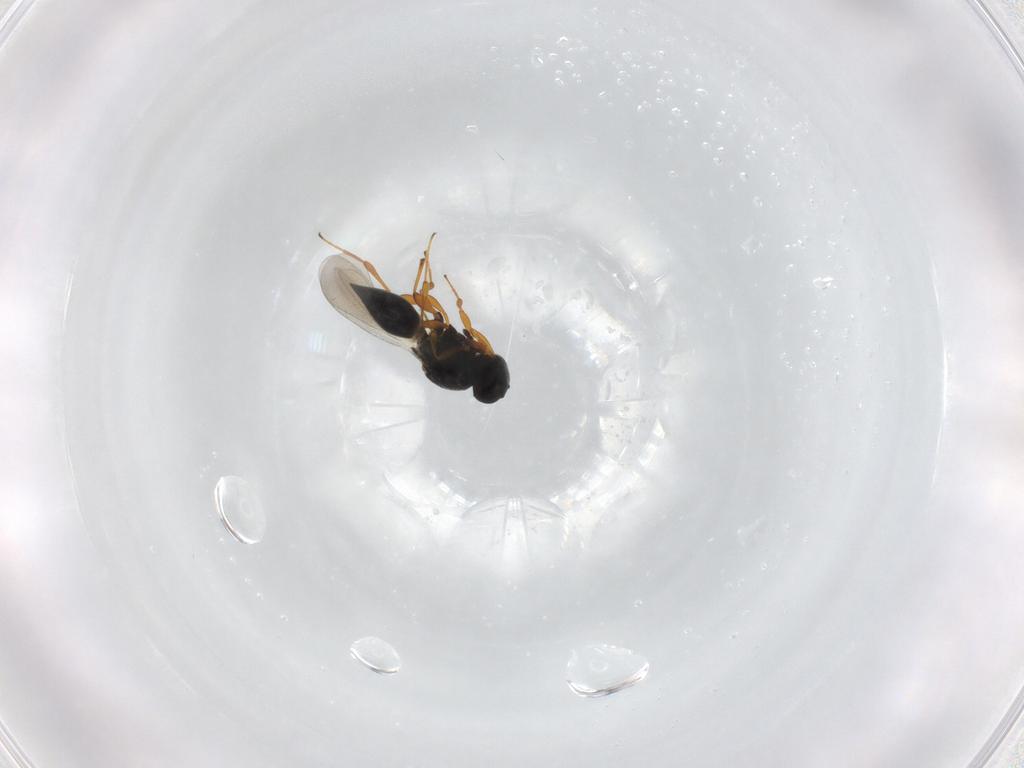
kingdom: Animalia
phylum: Arthropoda
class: Insecta
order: Hymenoptera
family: Platygastridae
